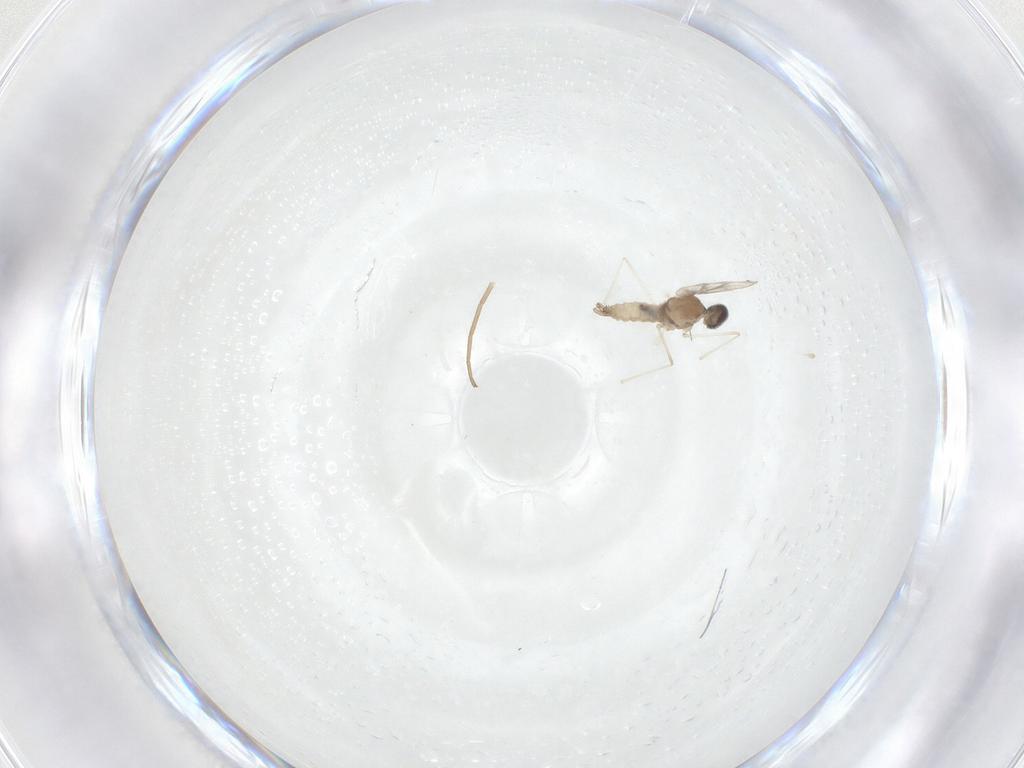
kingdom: Animalia
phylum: Arthropoda
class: Insecta
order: Diptera
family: Cecidomyiidae
